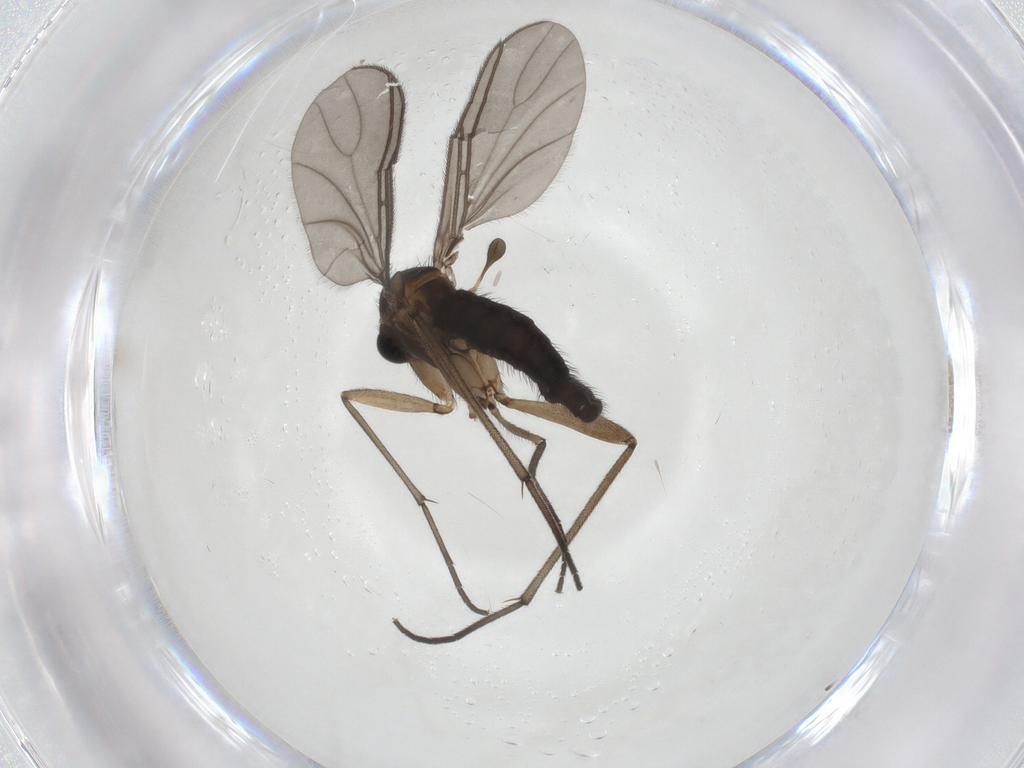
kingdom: Animalia
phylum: Arthropoda
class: Insecta
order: Diptera
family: Sciaridae
